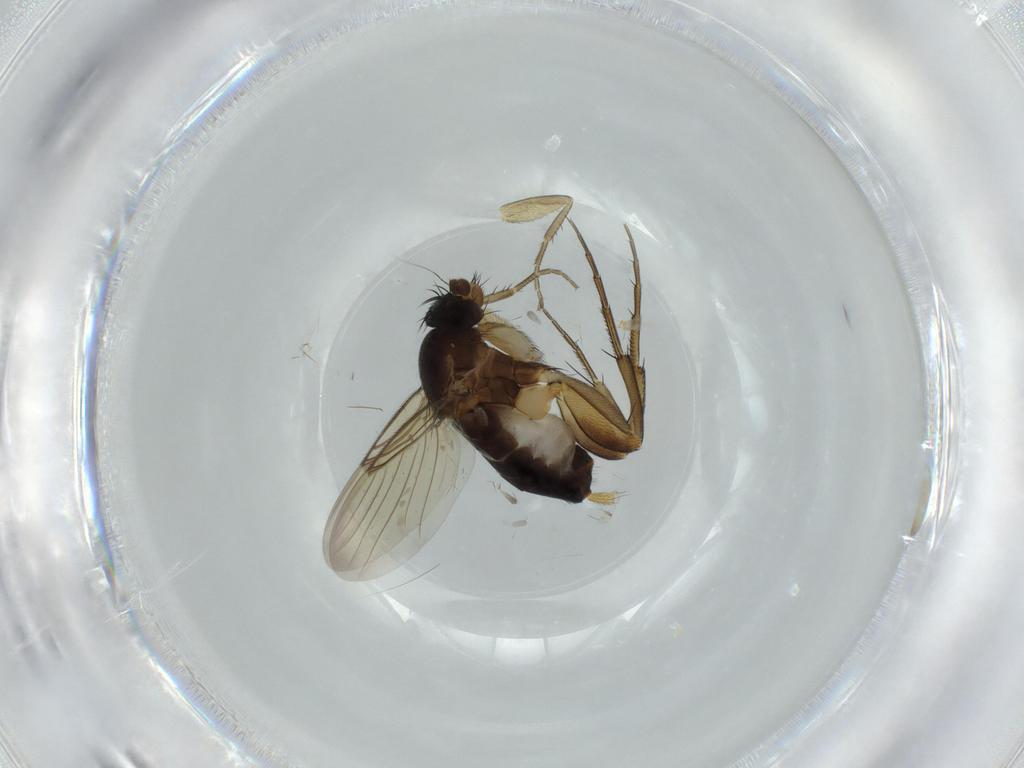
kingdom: Animalia
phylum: Arthropoda
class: Insecta
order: Diptera
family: Phoridae
